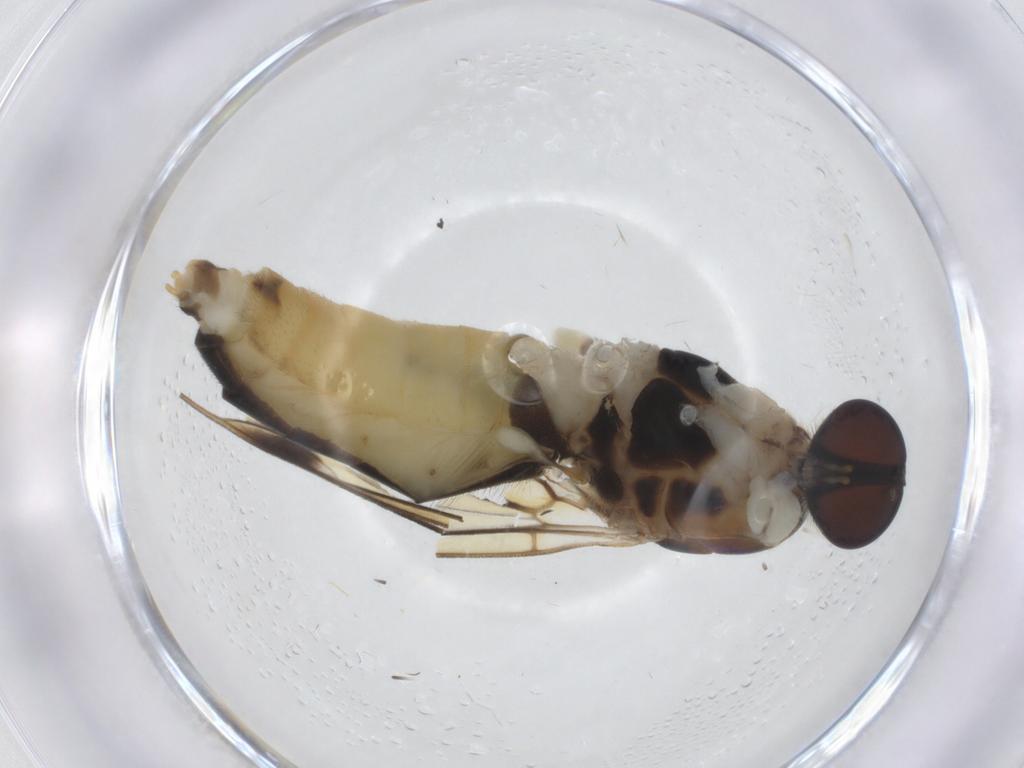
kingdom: Animalia
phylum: Arthropoda
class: Insecta
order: Diptera
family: Stratiomyidae
